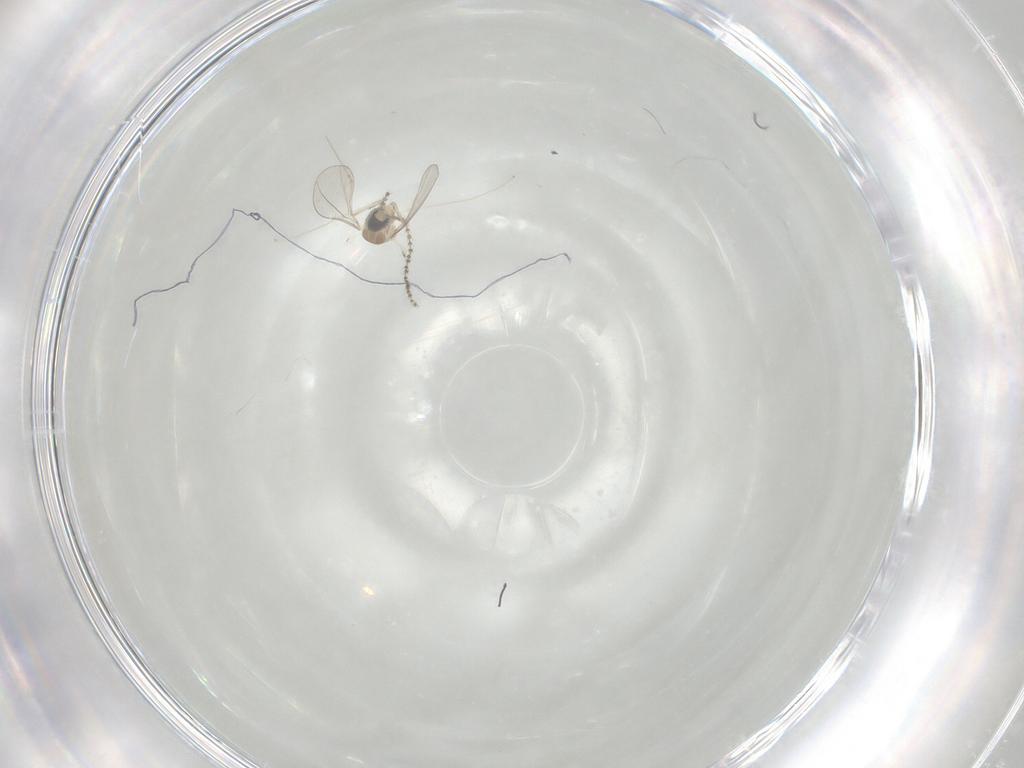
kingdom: Animalia
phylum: Arthropoda
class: Insecta
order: Diptera
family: Cecidomyiidae
